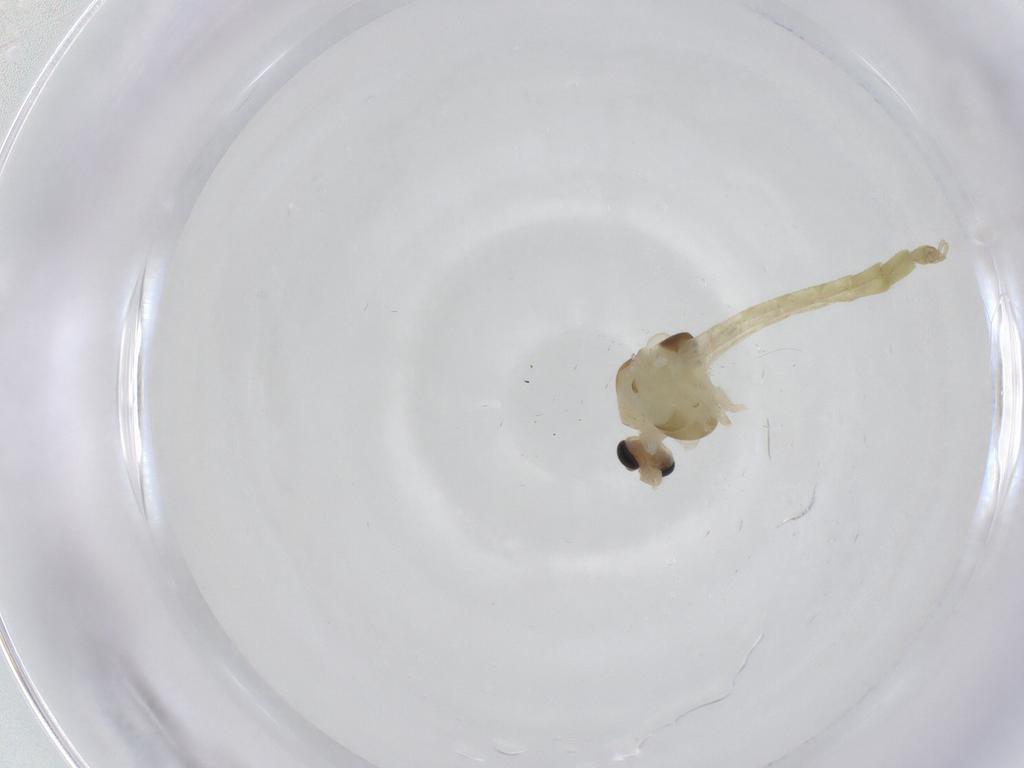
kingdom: Animalia
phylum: Arthropoda
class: Insecta
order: Diptera
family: Chironomidae
